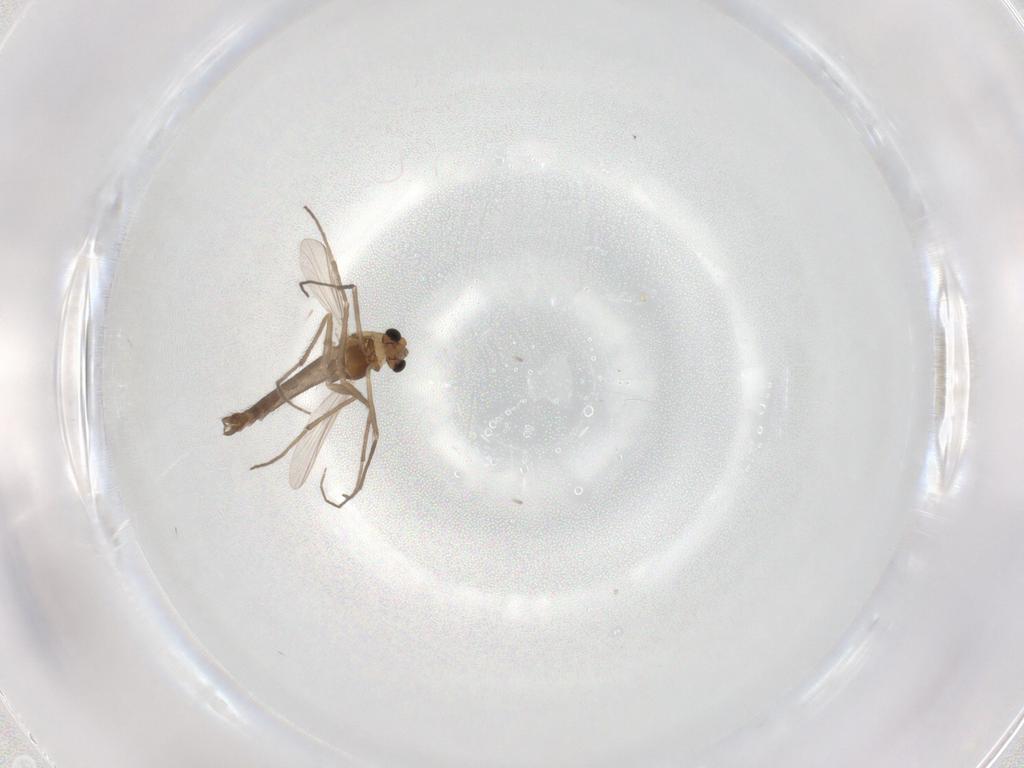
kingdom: Animalia
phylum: Arthropoda
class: Insecta
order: Diptera
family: Chironomidae
